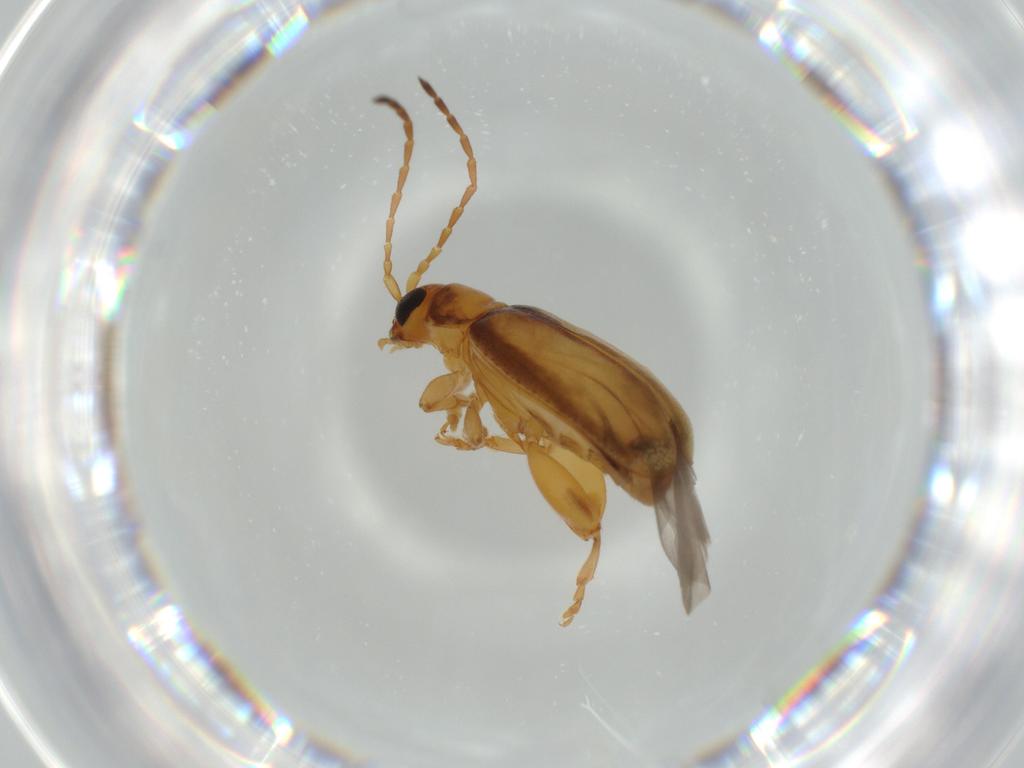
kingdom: Animalia
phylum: Arthropoda
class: Insecta
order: Coleoptera
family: Chrysomelidae
